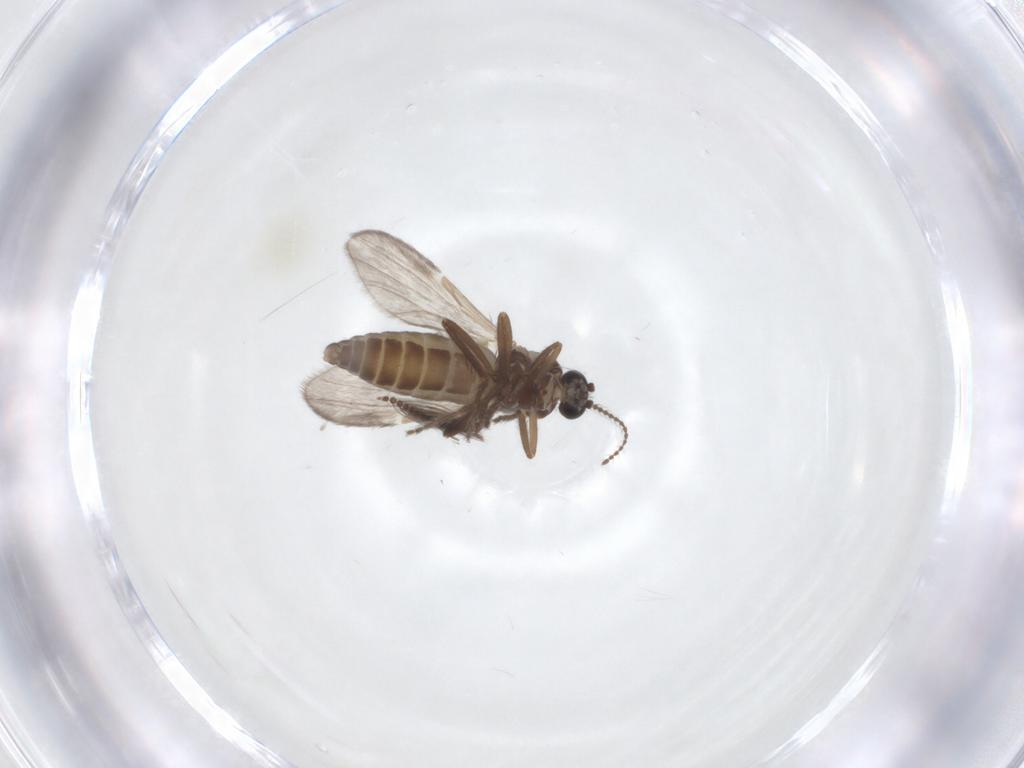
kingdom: Animalia
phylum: Arthropoda
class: Insecta
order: Diptera
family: Ceratopogonidae
